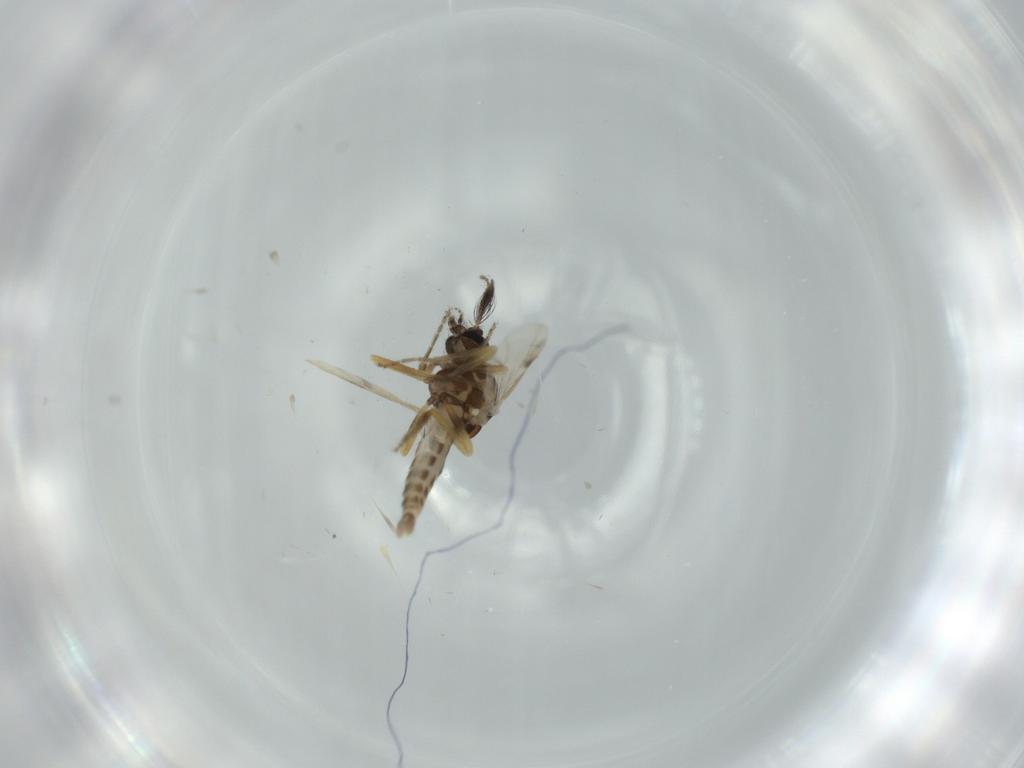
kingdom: Animalia
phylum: Arthropoda
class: Insecta
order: Diptera
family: Ceratopogonidae
